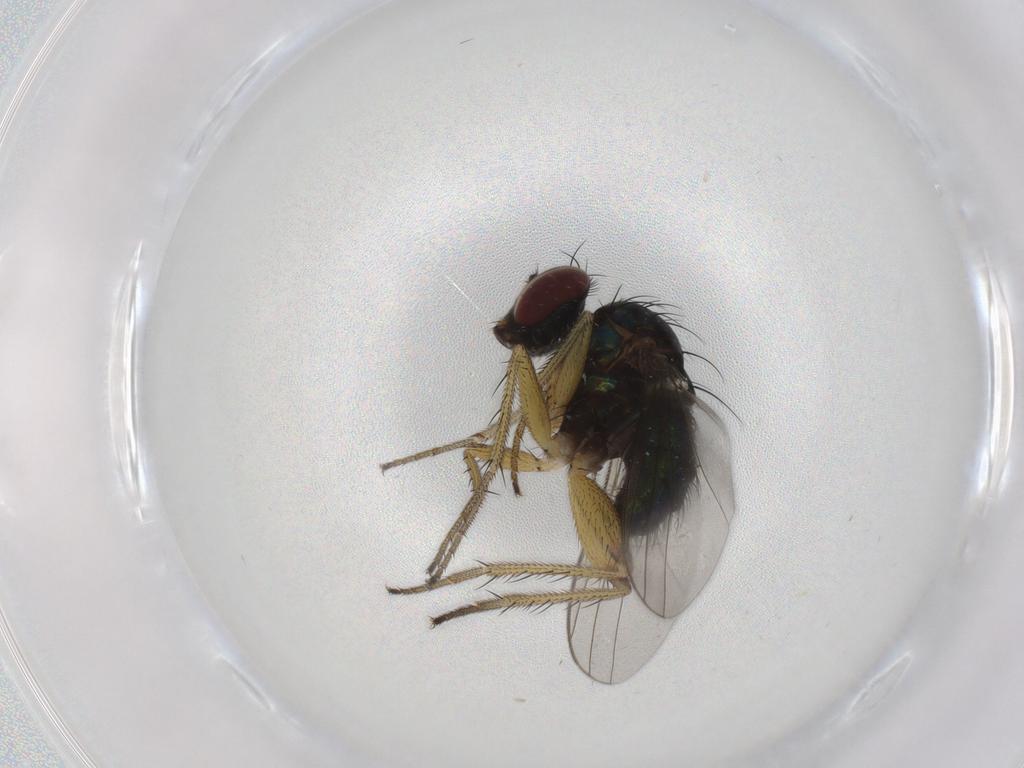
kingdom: Animalia
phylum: Arthropoda
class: Insecta
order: Diptera
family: Dolichopodidae
